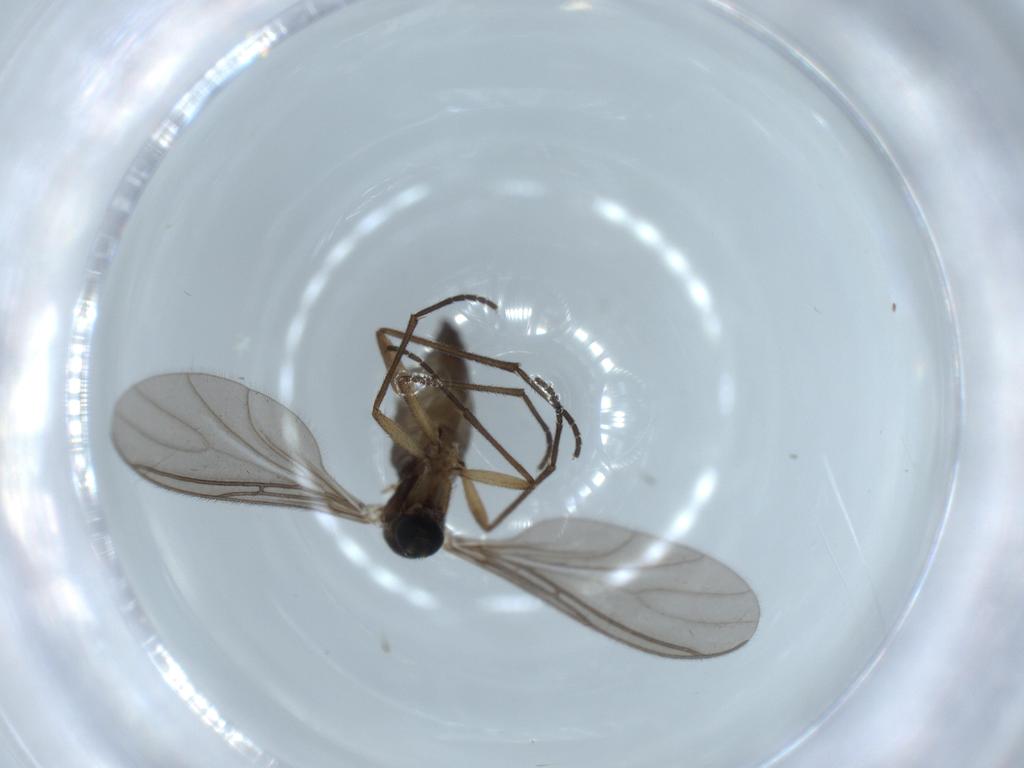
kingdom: Animalia
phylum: Arthropoda
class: Insecta
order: Diptera
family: Sciaridae
